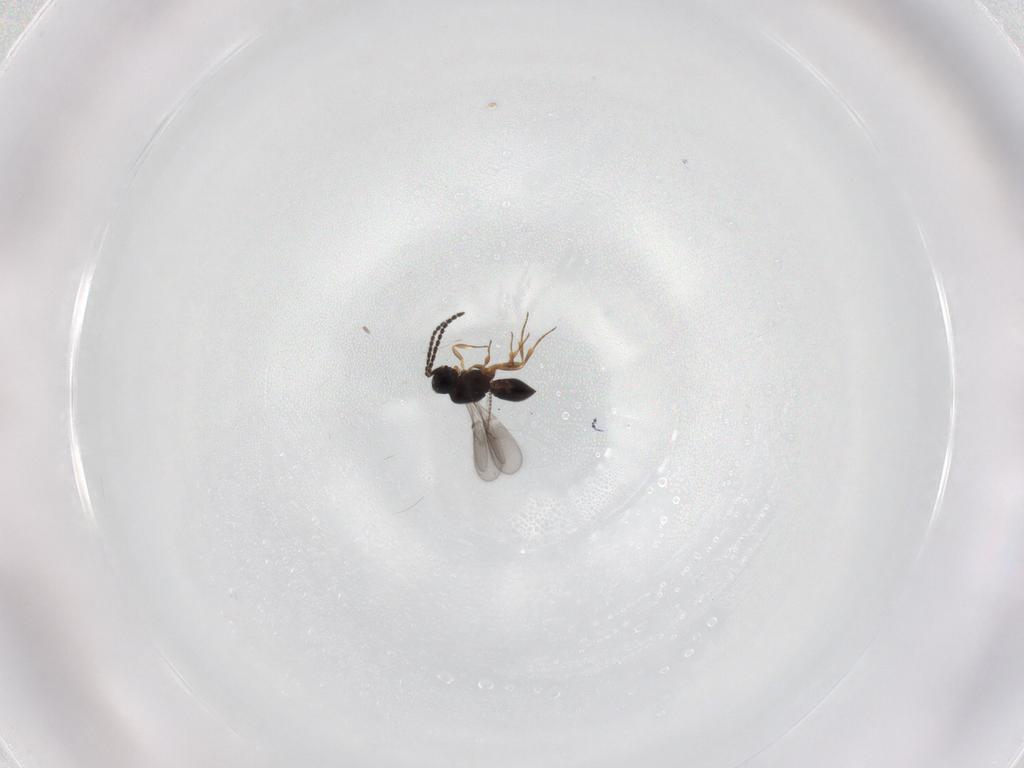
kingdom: Animalia
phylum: Arthropoda
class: Insecta
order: Hymenoptera
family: Scelionidae
